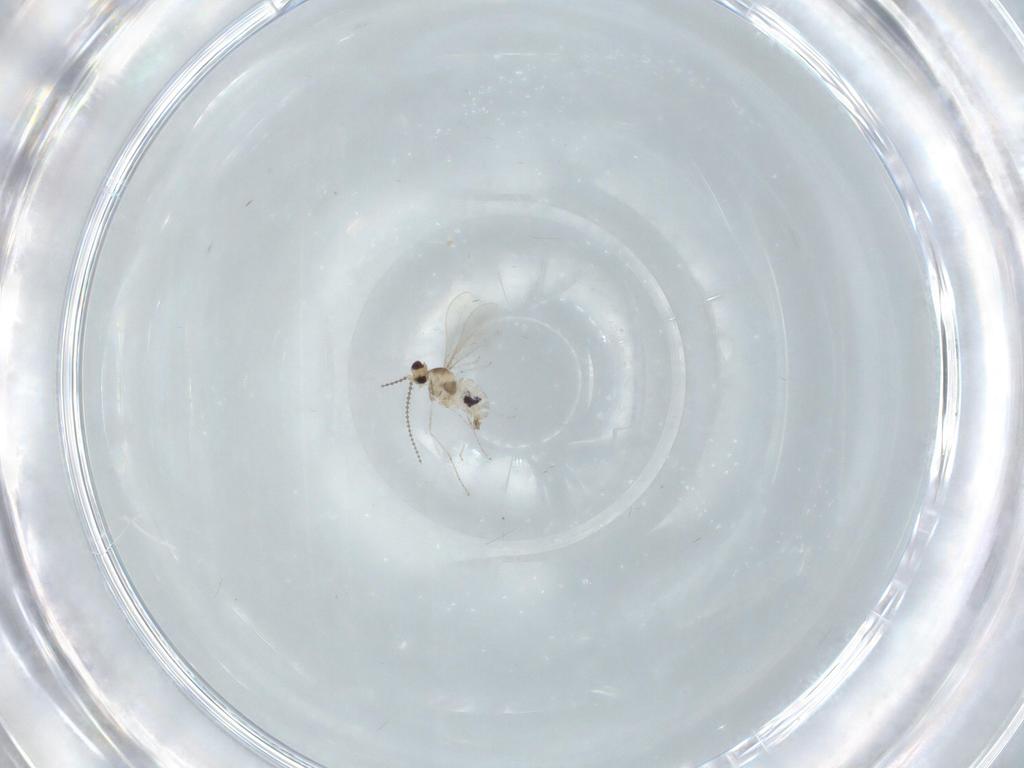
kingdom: Animalia
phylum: Arthropoda
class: Insecta
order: Diptera
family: Cecidomyiidae
